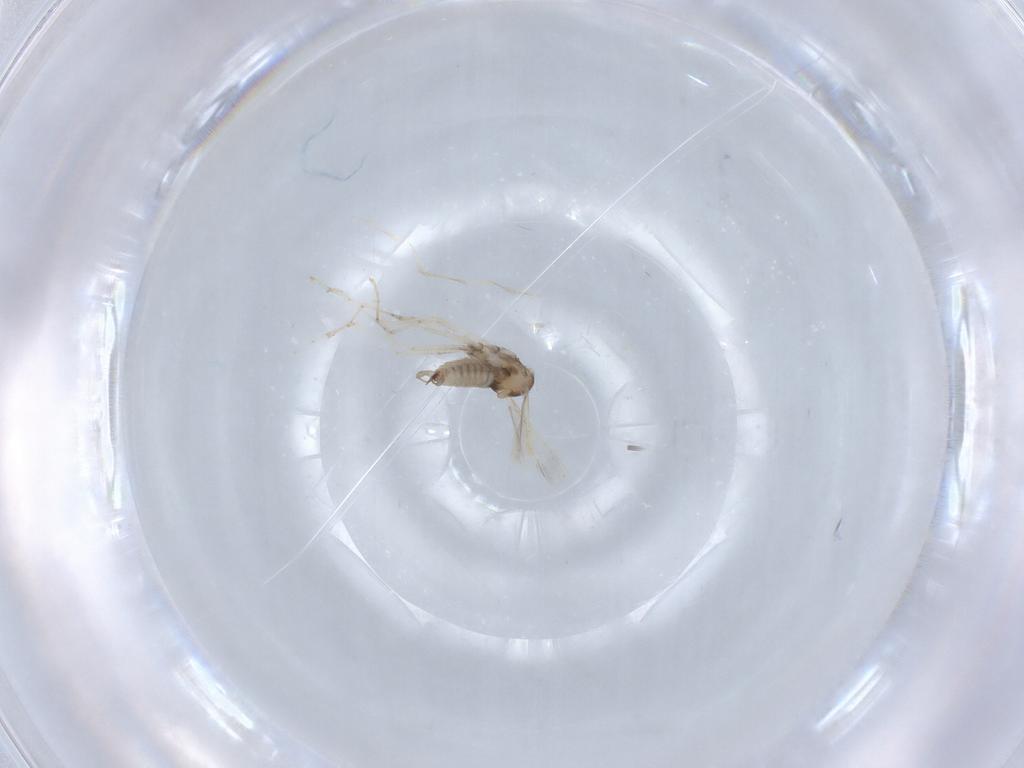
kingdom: Animalia
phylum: Arthropoda
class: Insecta
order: Diptera
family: Cecidomyiidae
